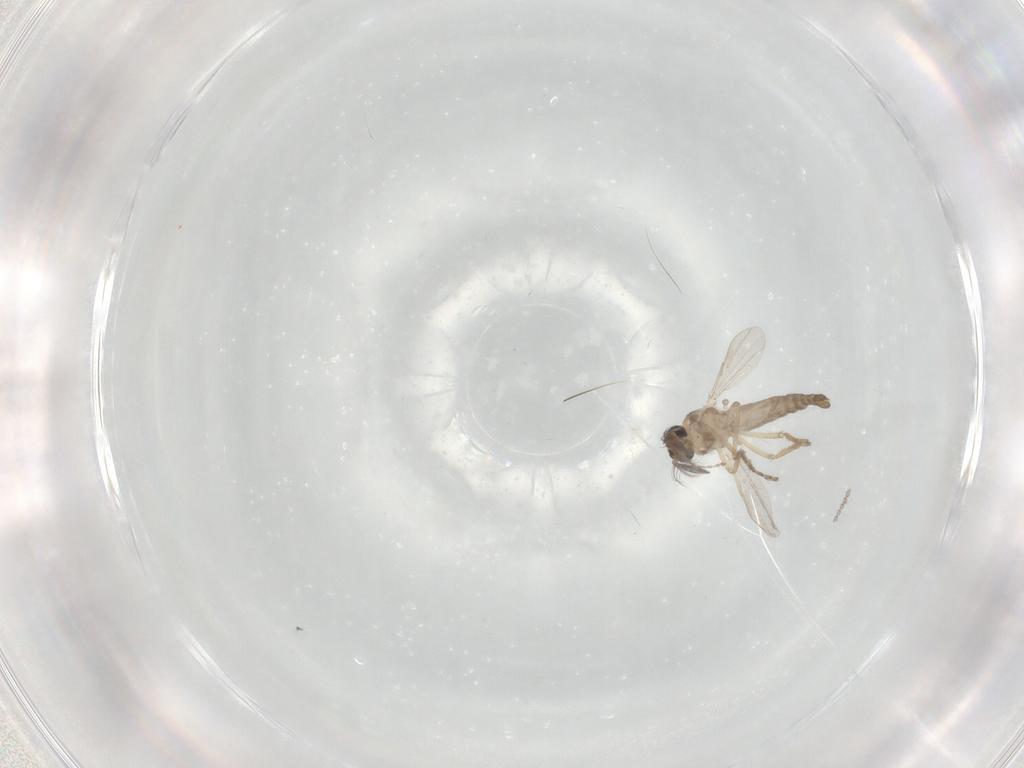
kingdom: Animalia
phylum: Arthropoda
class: Insecta
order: Diptera
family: Ceratopogonidae
